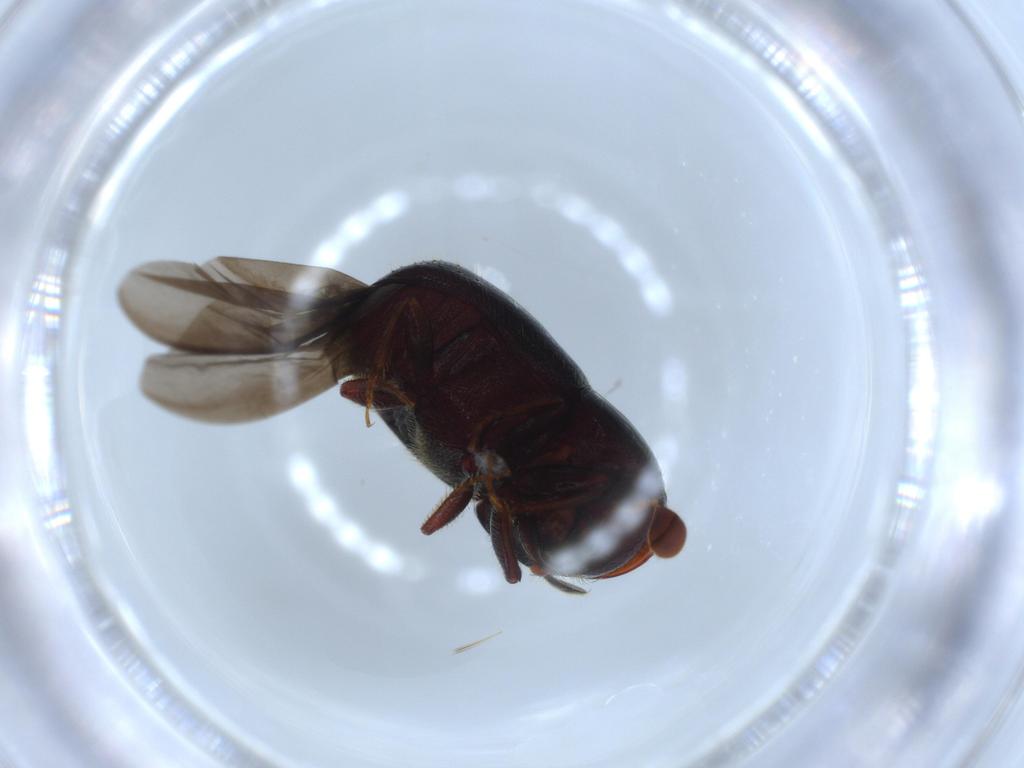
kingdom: Animalia
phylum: Arthropoda
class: Insecta
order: Coleoptera
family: Curculionidae
